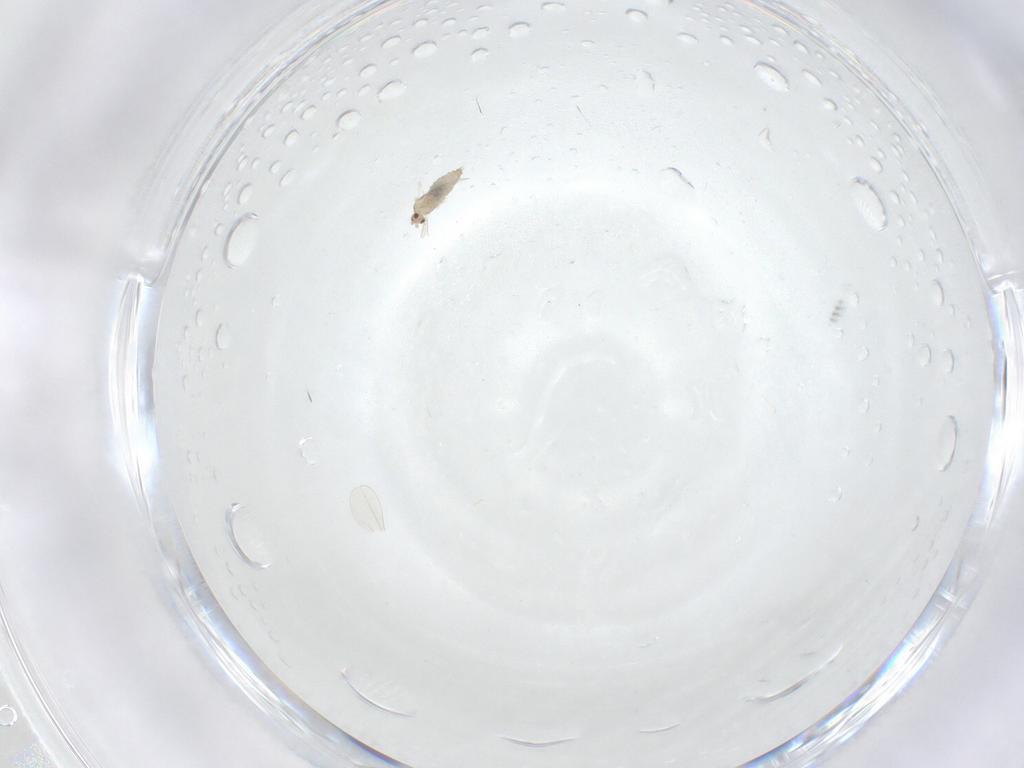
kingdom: Animalia
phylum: Arthropoda
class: Insecta
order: Diptera
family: Cecidomyiidae
